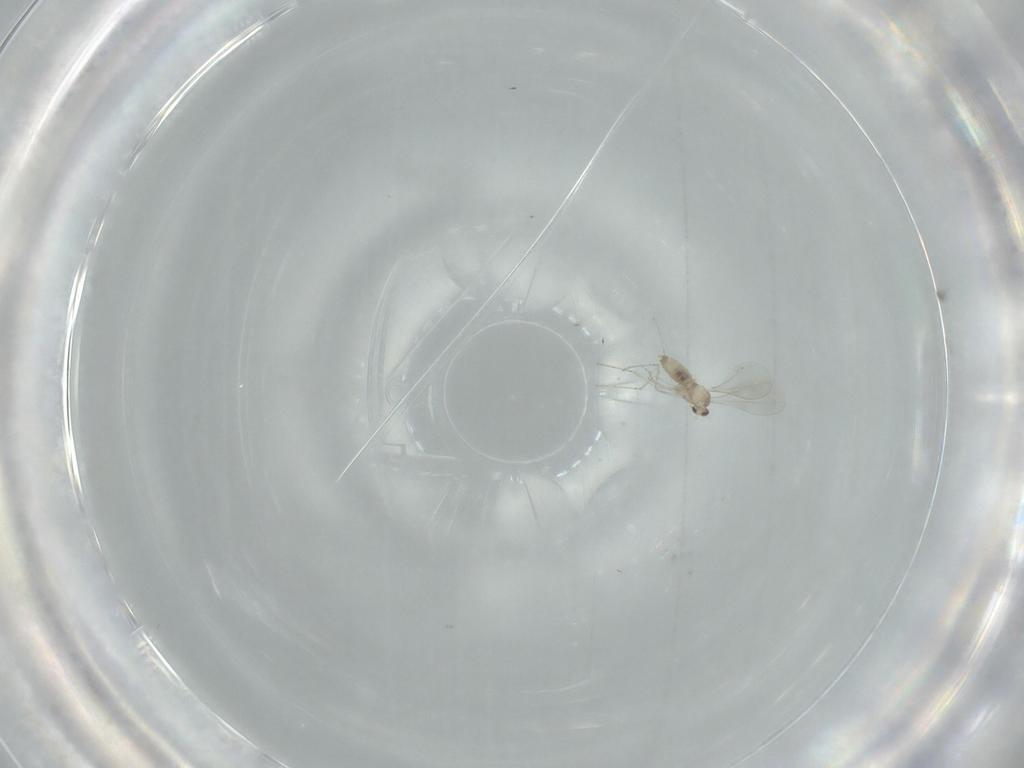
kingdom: Animalia
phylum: Arthropoda
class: Insecta
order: Diptera
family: Cecidomyiidae
